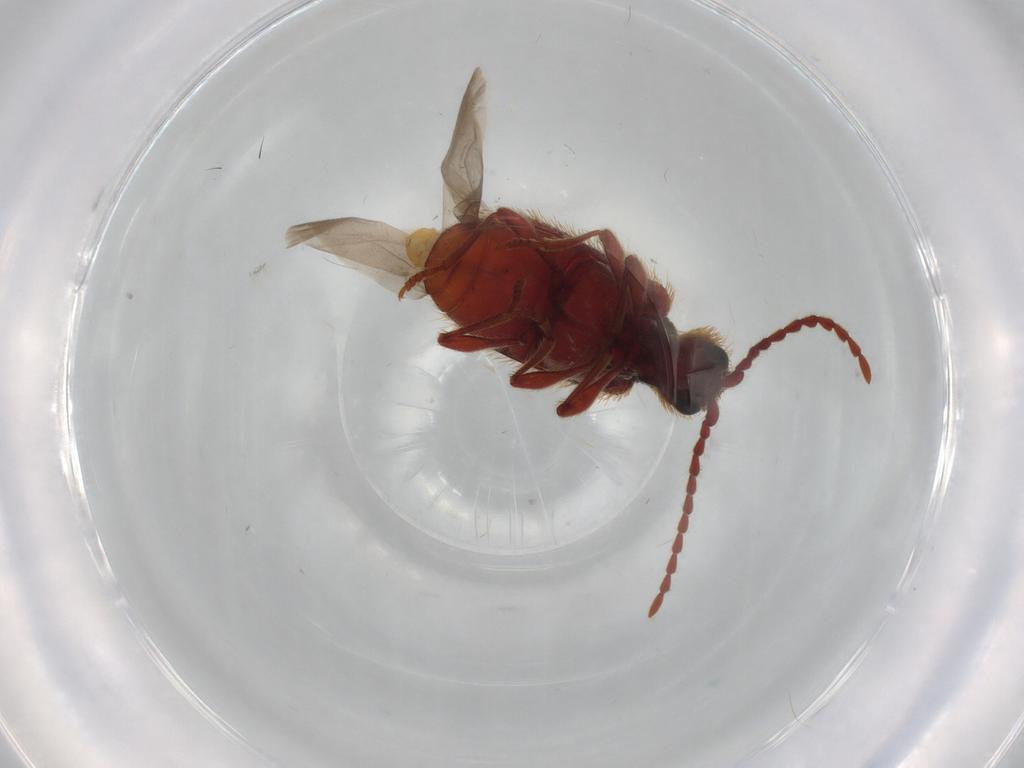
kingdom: Animalia
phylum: Arthropoda
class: Insecta
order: Coleoptera
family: Ptinidae
